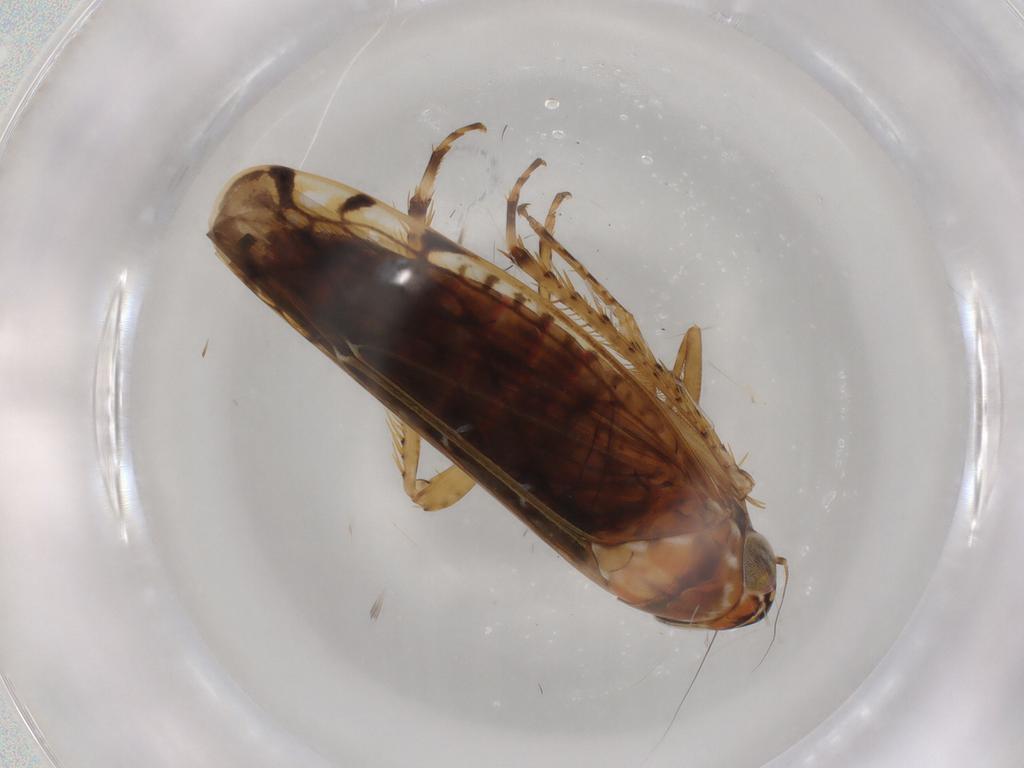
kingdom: Animalia
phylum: Arthropoda
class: Insecta
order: Hemiptera
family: Cicadellidae
